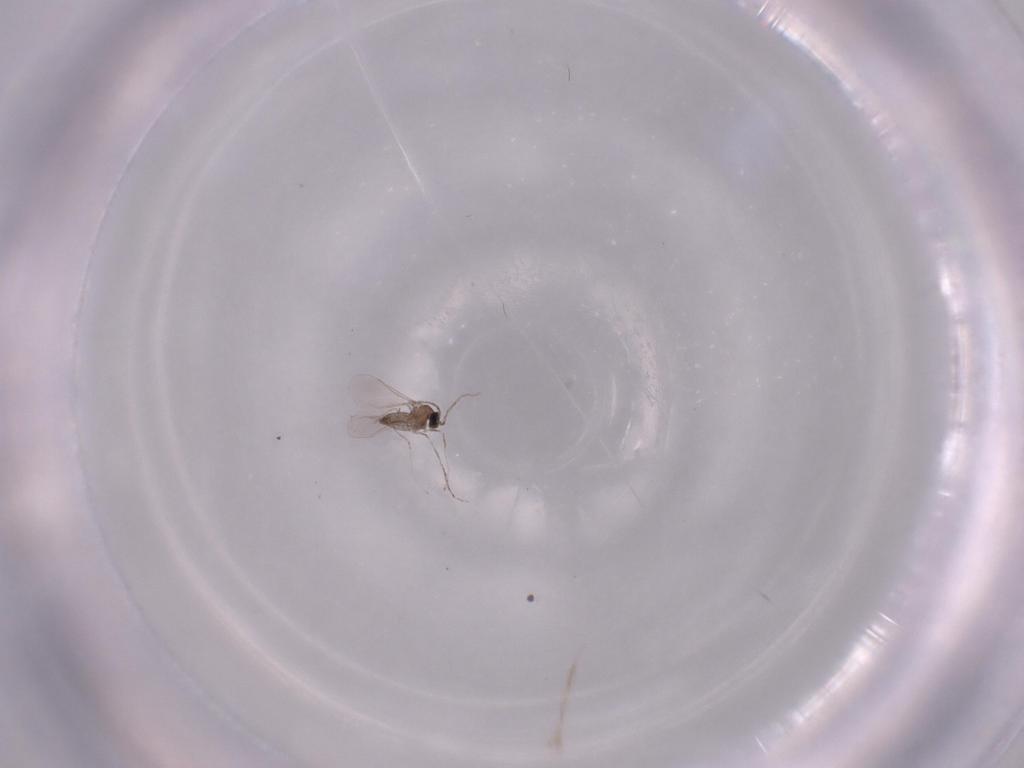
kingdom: Animalia
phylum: Arthropoda
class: Insecta
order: Diptera
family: Cecidomyiidae
